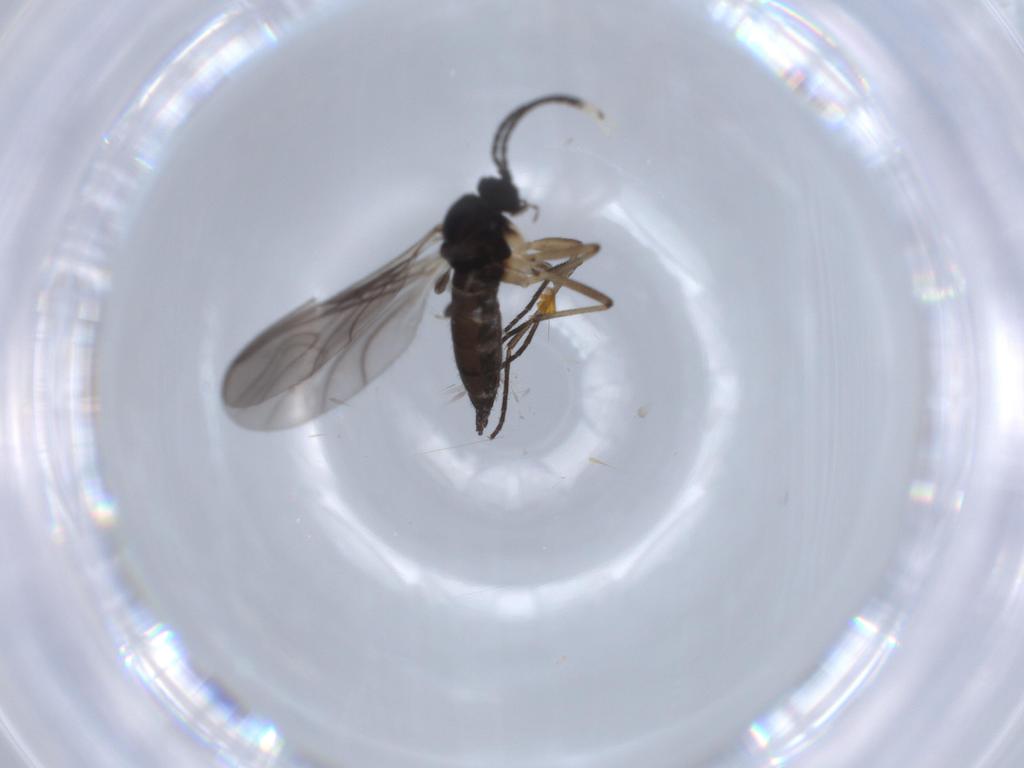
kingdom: Animalia
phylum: Arthropoda
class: Insecta
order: Diptera
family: Sciaridae
